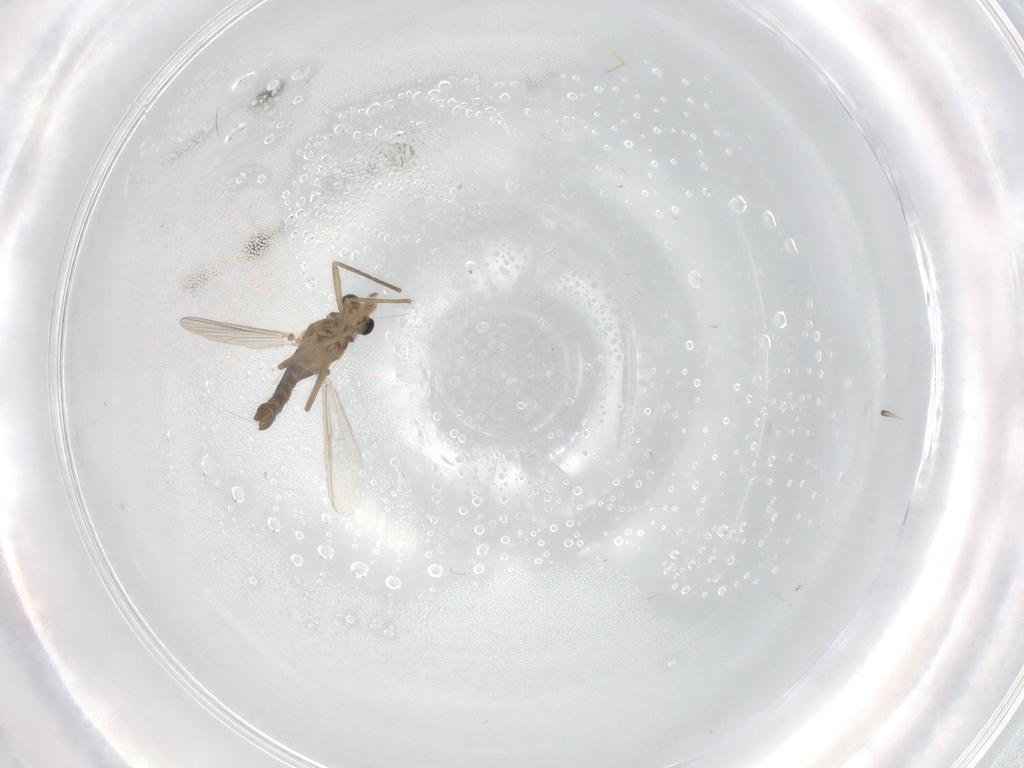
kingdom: Animalia
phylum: Arthropoda
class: Insecta
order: Diptera
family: Chironomidae
